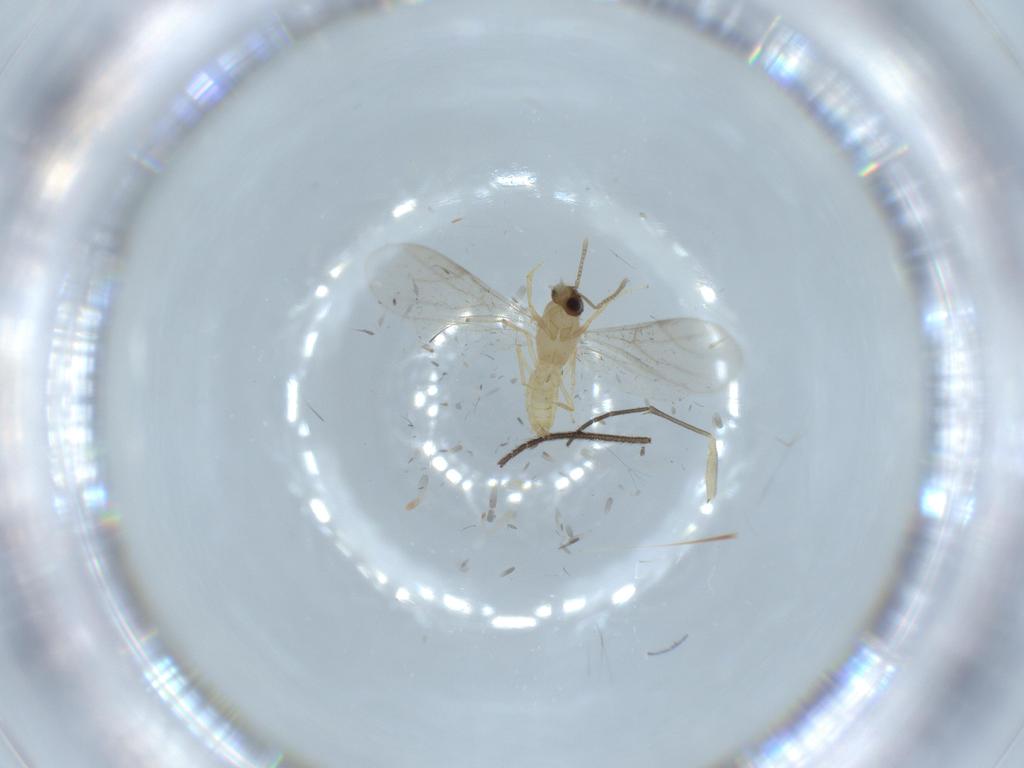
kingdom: Animalia
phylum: Arthropoda
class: Insecta
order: Diptera
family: Sciaridae
